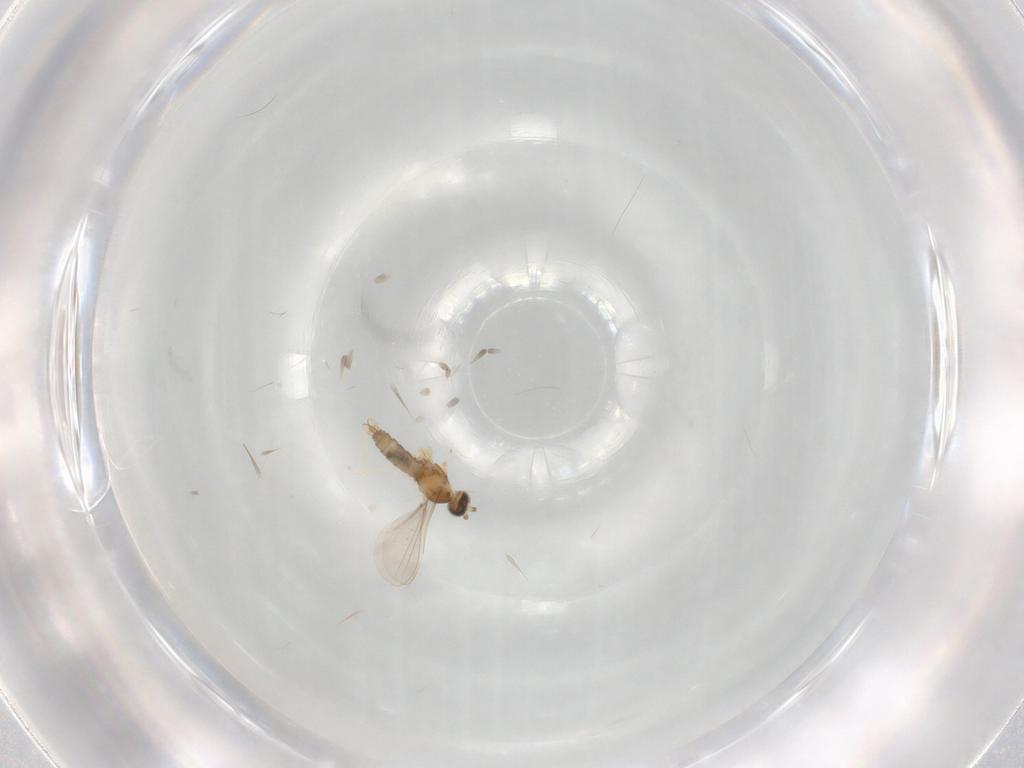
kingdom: Animalia
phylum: Arthropoda
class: Insecta
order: Diptera
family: Cecidomyiidae
